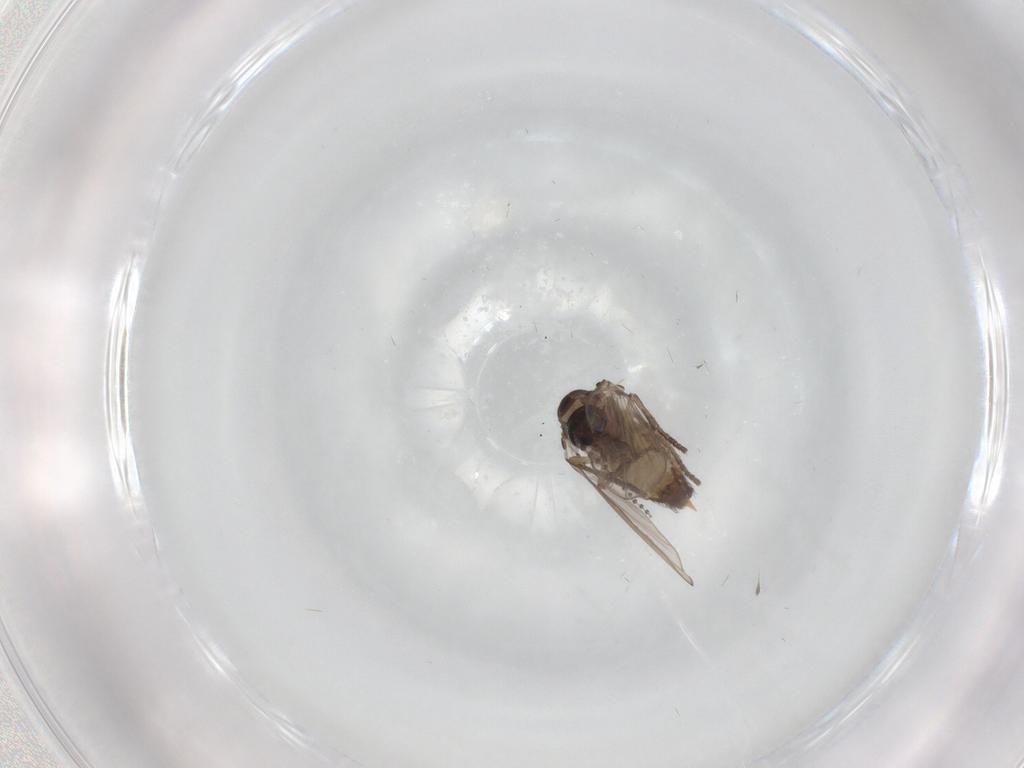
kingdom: Animalia
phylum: Arthropoda
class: Insecta
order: Diptera
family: Psychodidae
